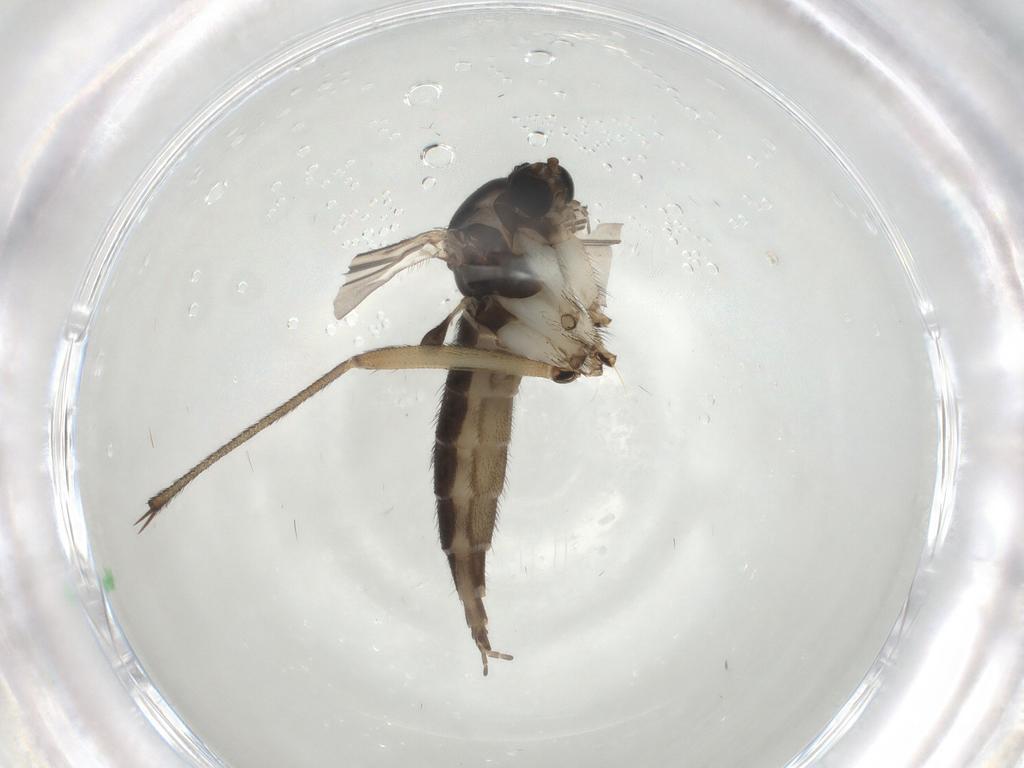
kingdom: Animalia
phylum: Arthropoda
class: Insecta
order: Diptera
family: Sciaridae
